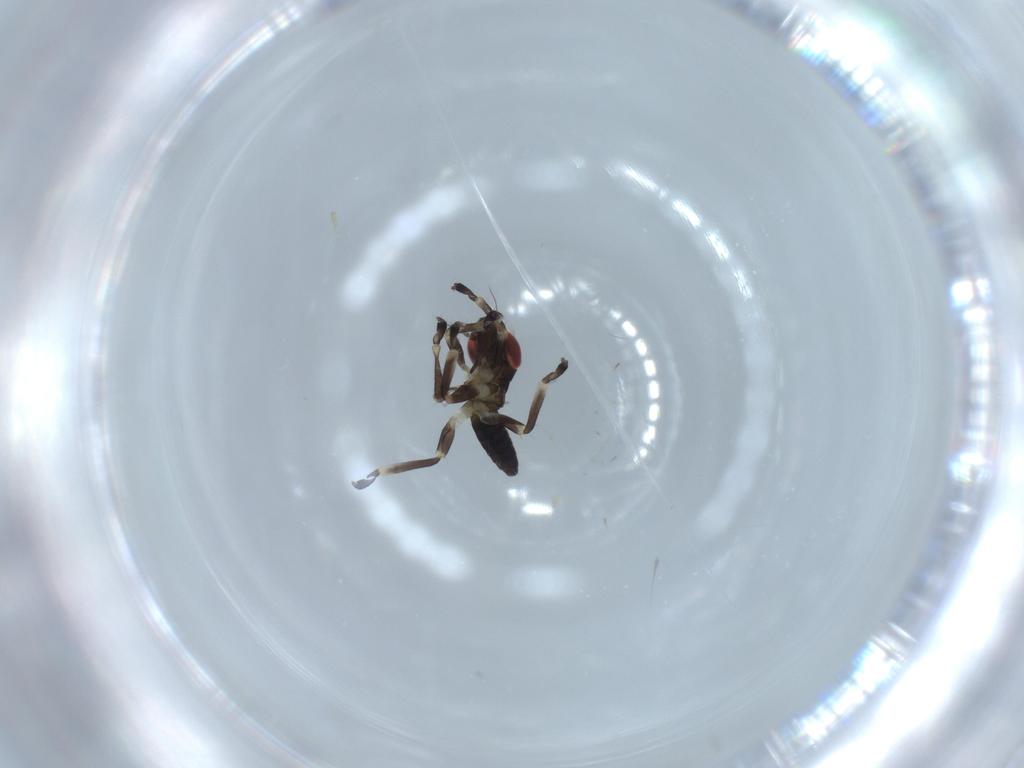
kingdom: Animalia
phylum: Arthropoda
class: Insecta
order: Hemiptera
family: Cicadellidae
